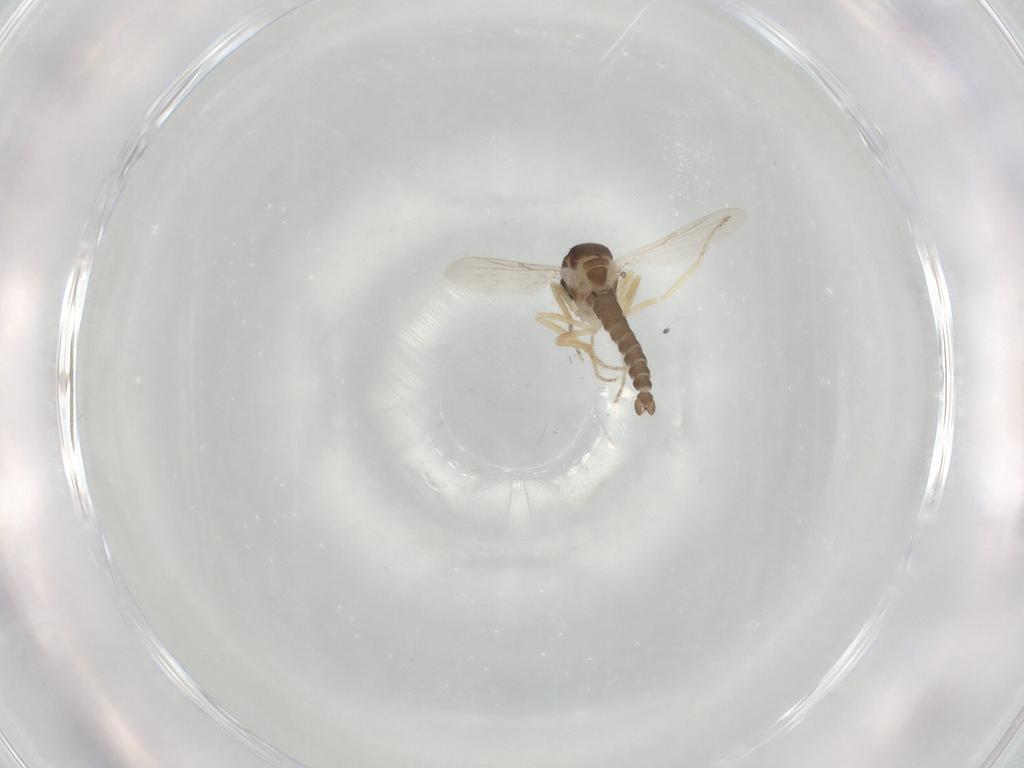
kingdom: Animalia
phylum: Arthropoda
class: Insecta
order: Diptera
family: Ceratopogonidae
